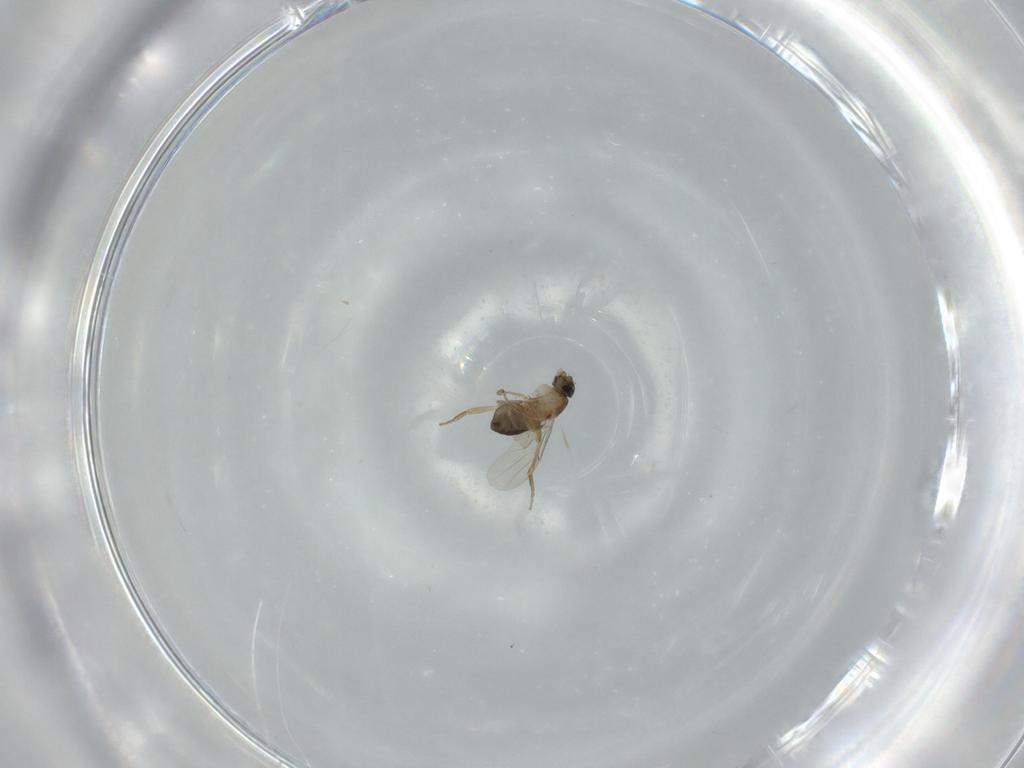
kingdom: Animalia
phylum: Arthropoda
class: Insecta
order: Diptera
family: Phoridae
